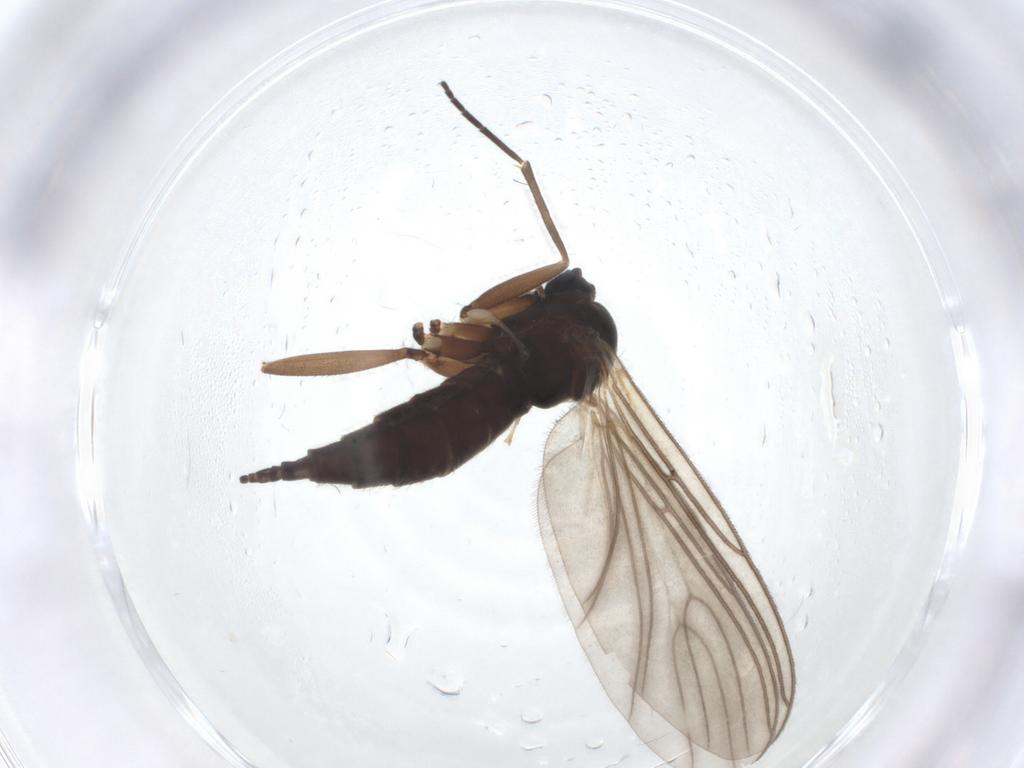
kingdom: Animalia
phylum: Arthropoda
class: Insecta
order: Diptera
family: Sciaridae
